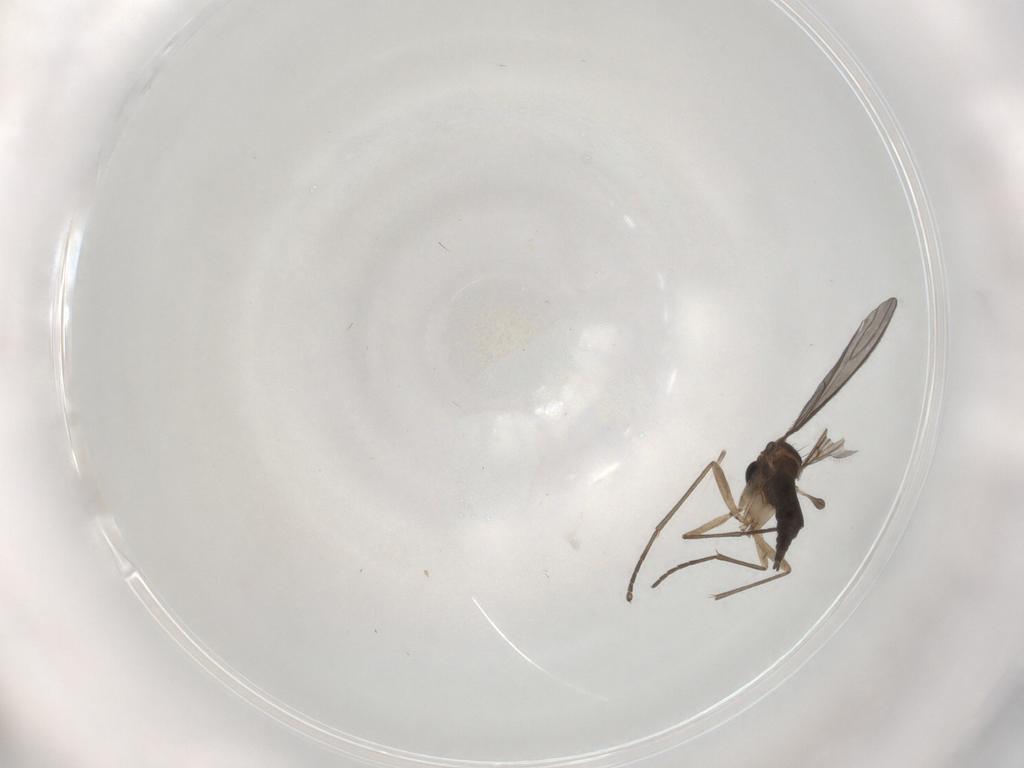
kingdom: Animalia
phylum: Arthropoda
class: Insecta
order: Diptera
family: Sciaridae
